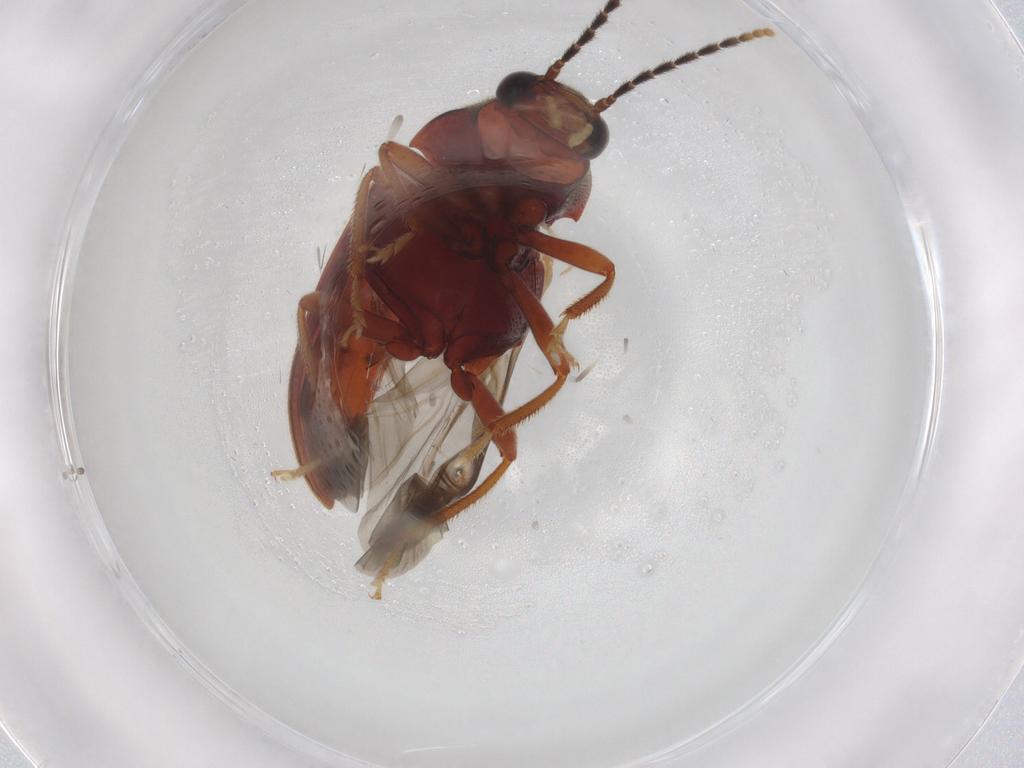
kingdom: Animalia
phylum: Arthropoda
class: Insecta
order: Coleoptera
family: Ptilodactylidae
